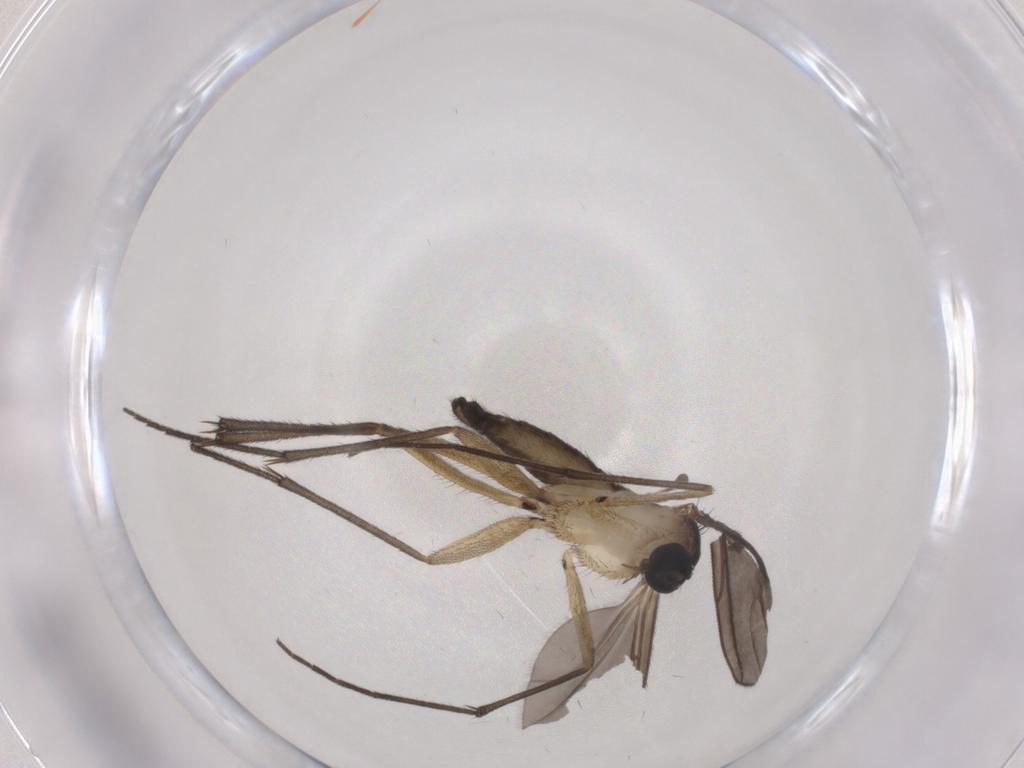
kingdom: Animalia
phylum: Arthropoda
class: Insecta
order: Diptera
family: Sciaridae
